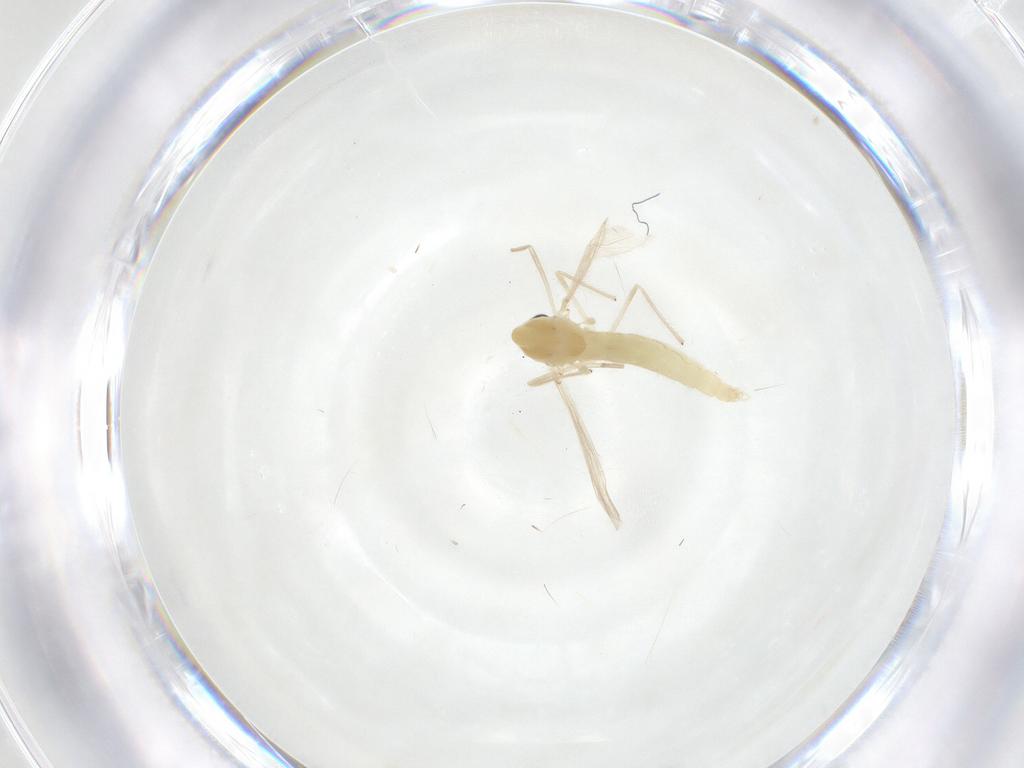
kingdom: Animalia
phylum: Arthropoda
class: Insecta
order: Diptera
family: Chironomidae
